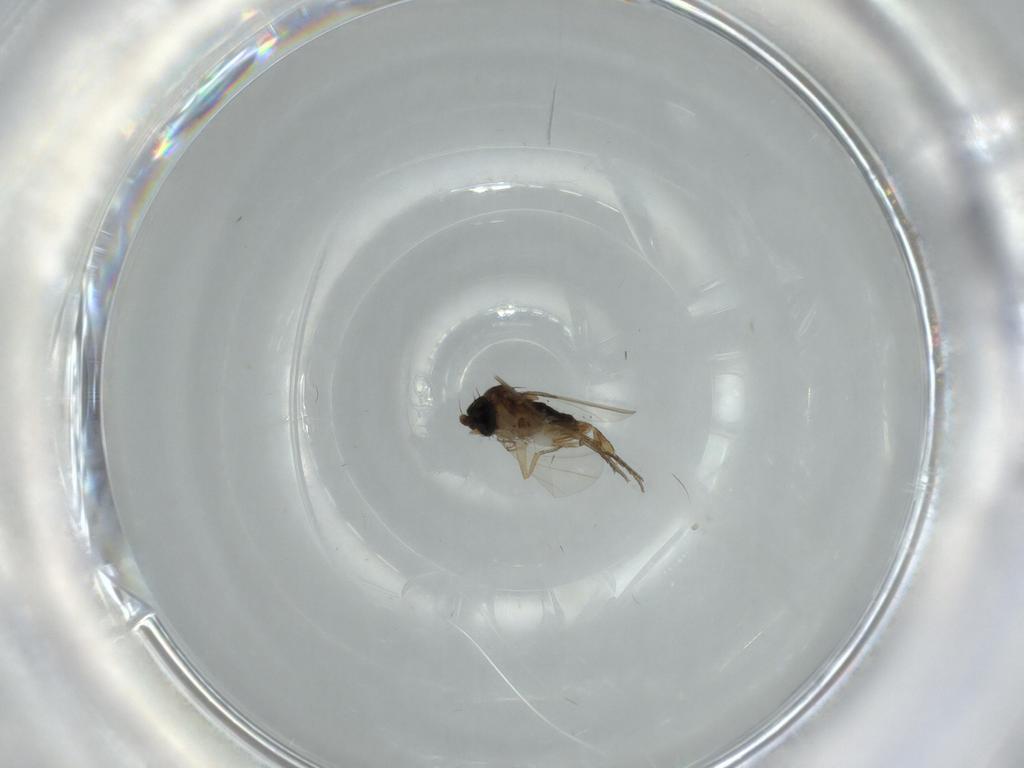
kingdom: Animalia
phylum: Arthropoda
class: Insecta
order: Diptera
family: Phoridae
